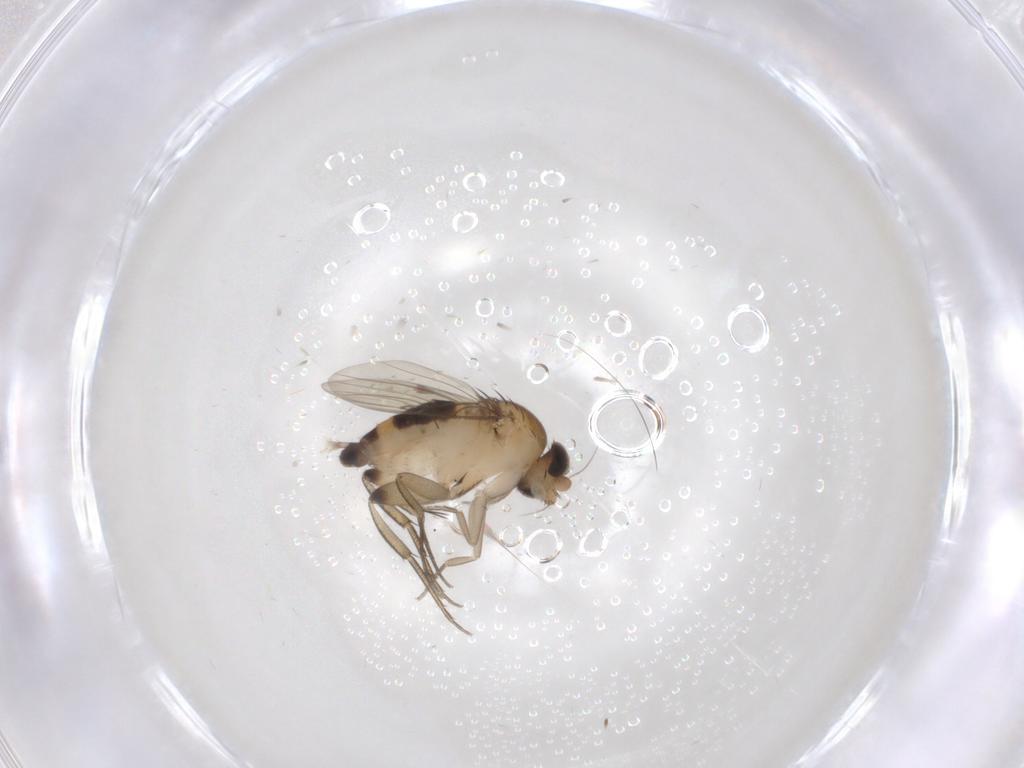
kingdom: Animalia
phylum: Arthropoda
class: Insecta
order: Diptera
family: Phoridae
